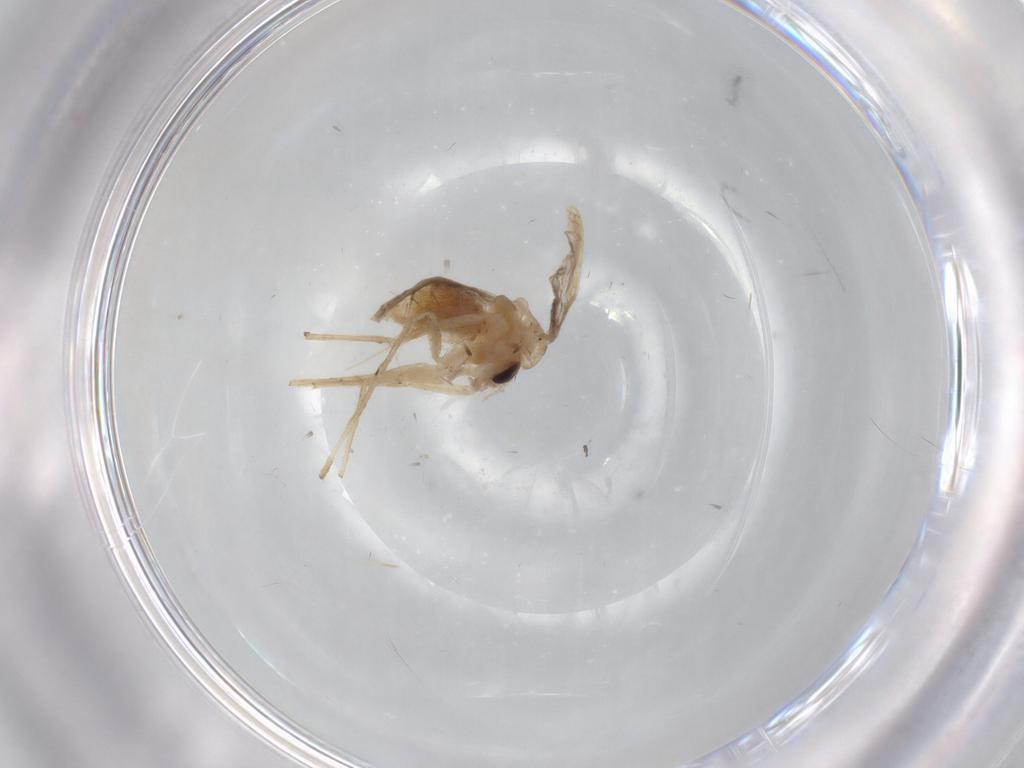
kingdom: Animalia
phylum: Arthropoda
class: Insecta
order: Diptera
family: Chironomidae
